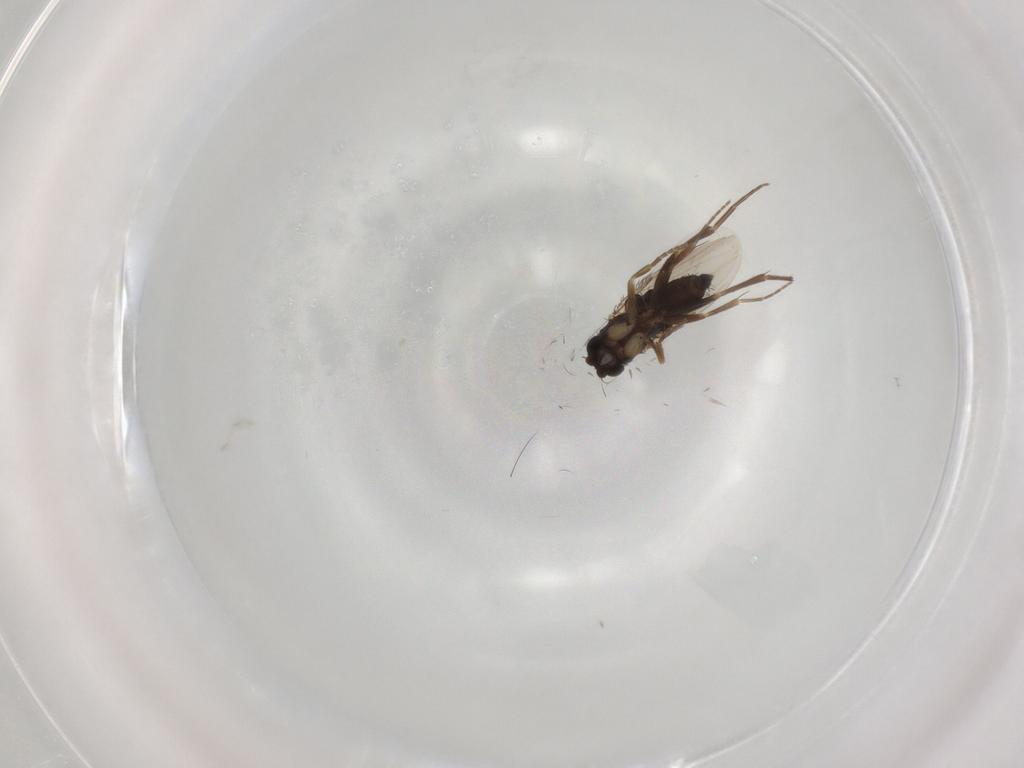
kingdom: Animalia
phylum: Arthropoda
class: Insecta
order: Diptera
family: Phoridae
